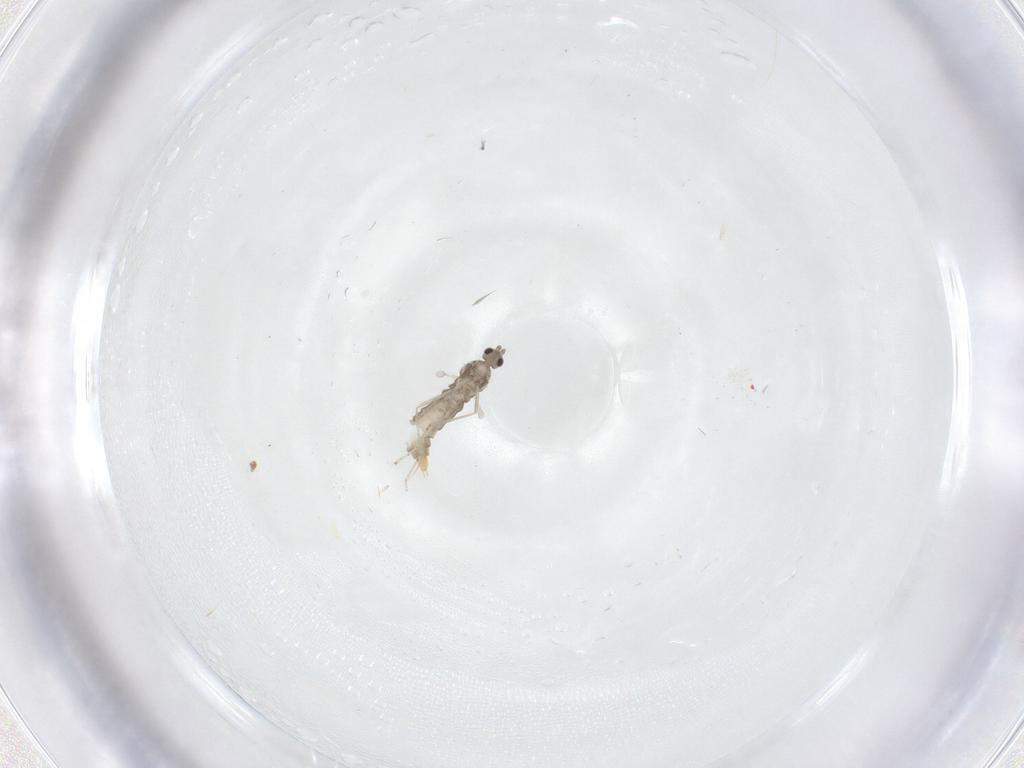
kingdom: Animalia
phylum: Arthropoda
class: Insecta
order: Diptera
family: Cecidomyiidae
